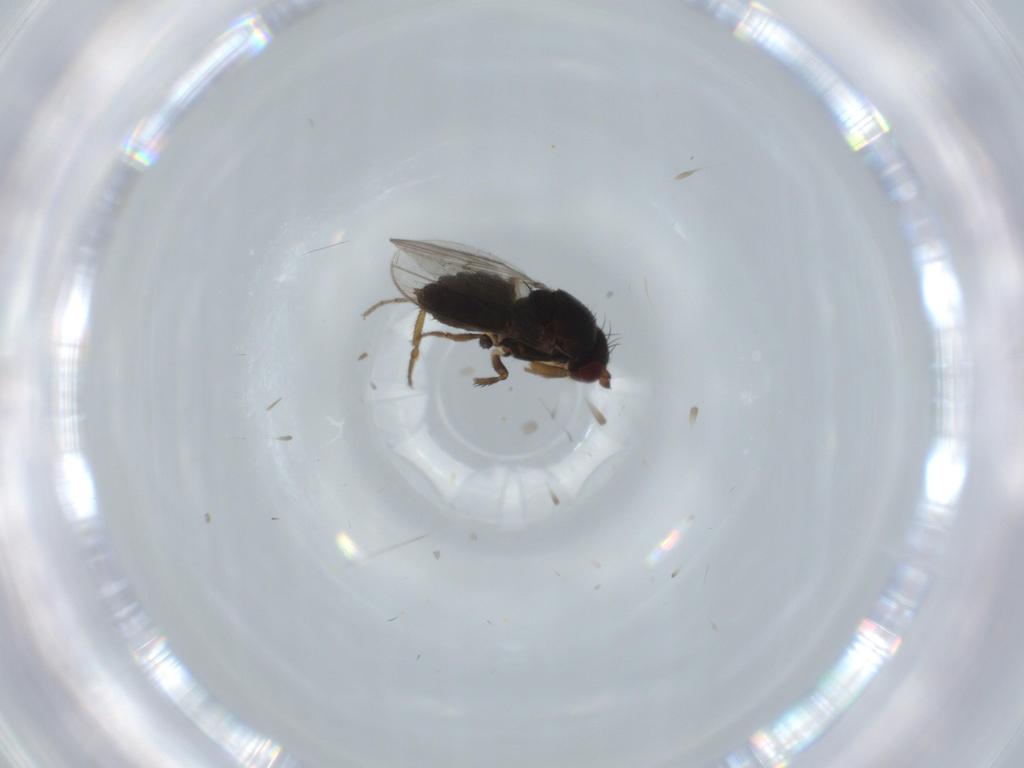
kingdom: Animalia
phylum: Arthropoda
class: Insecta
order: Diptera
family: Sphaeroceridae
